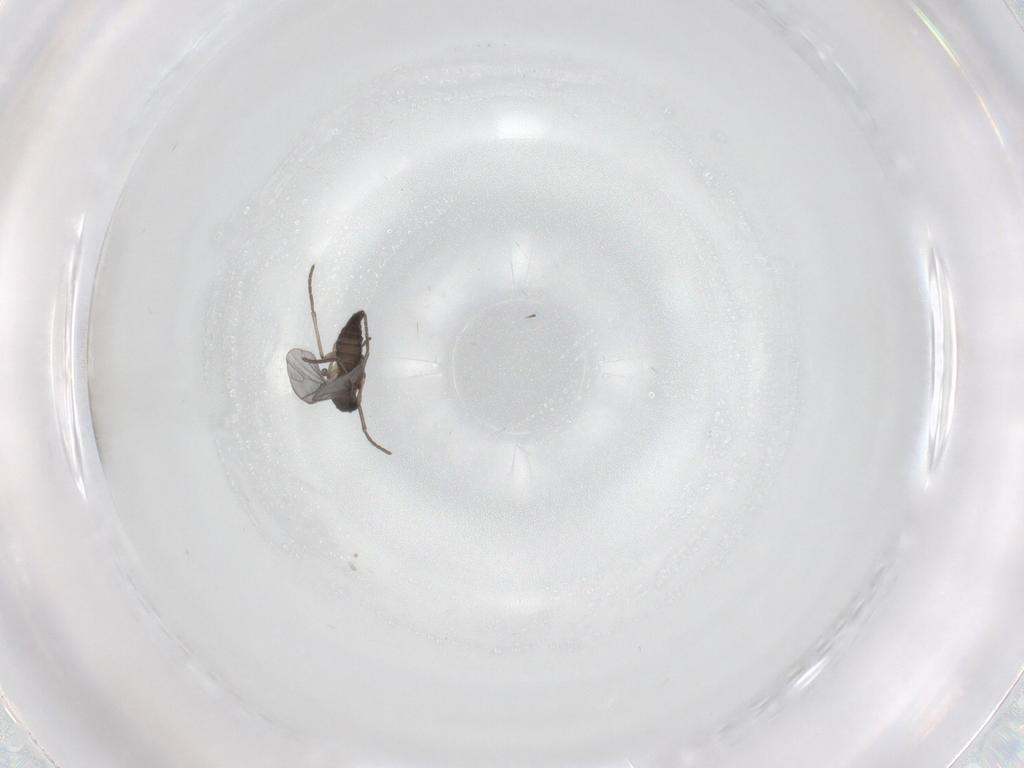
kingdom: Animalia
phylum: Arthropoda
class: Insecta
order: Diptera
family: Sciaridae
